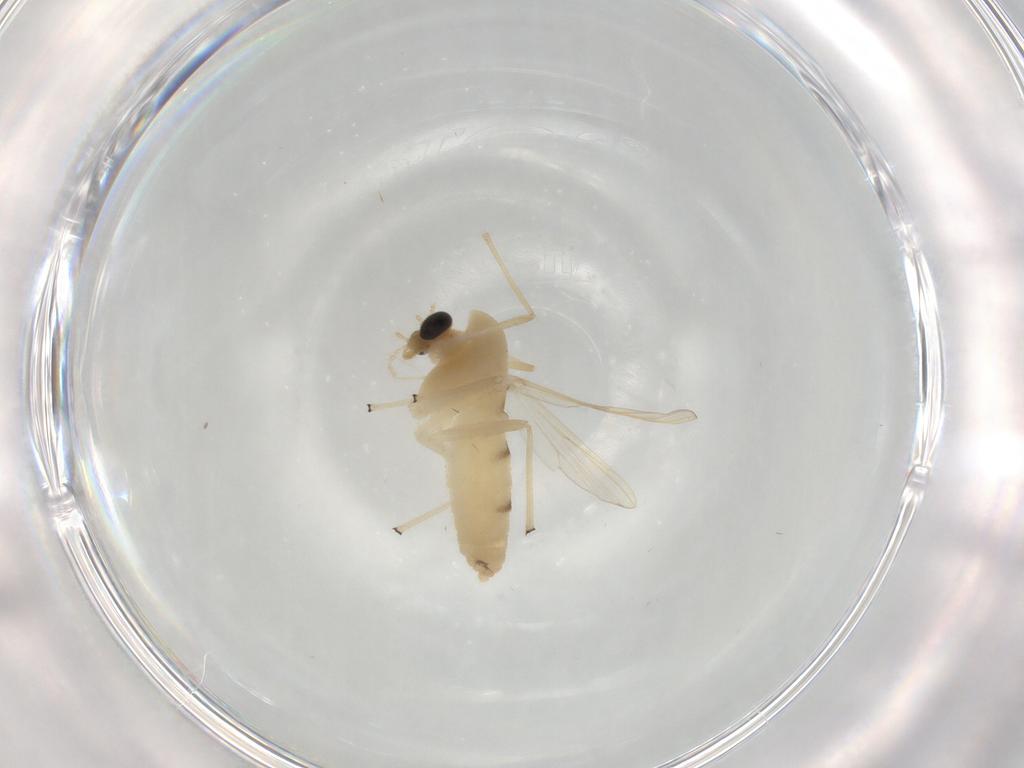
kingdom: Animalia
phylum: Arthropoda
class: Insecta
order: Diptera
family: Chironomidae
